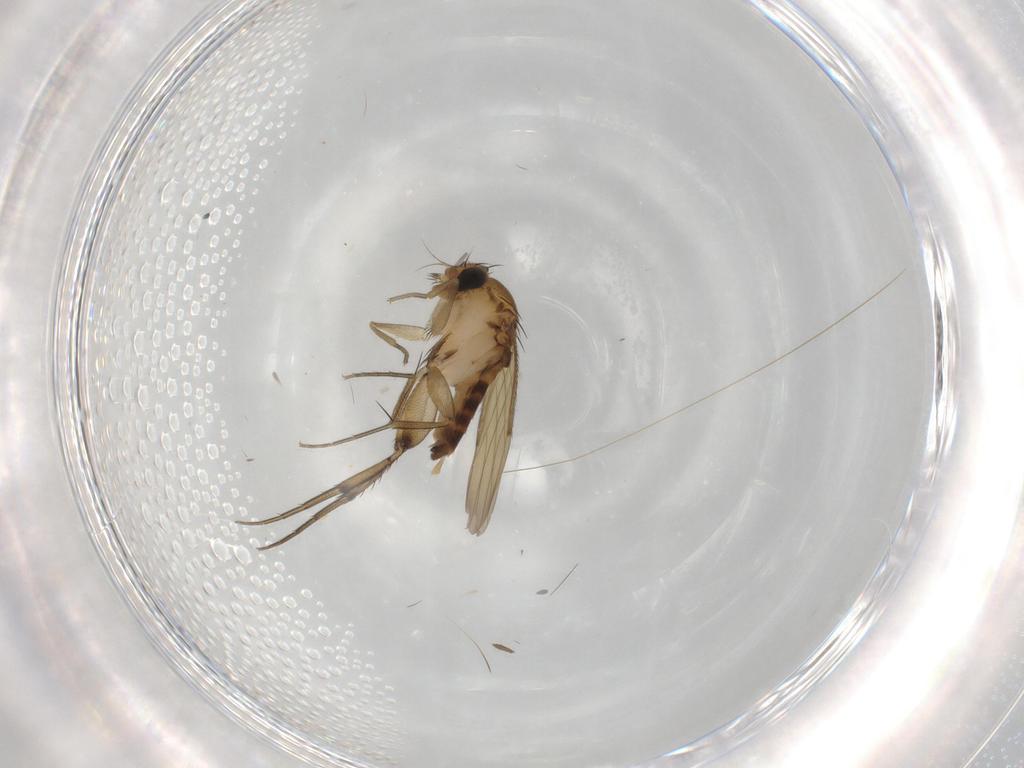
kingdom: Animalia
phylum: Arthropoda
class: Insecta
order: Diptera
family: Phoridae
